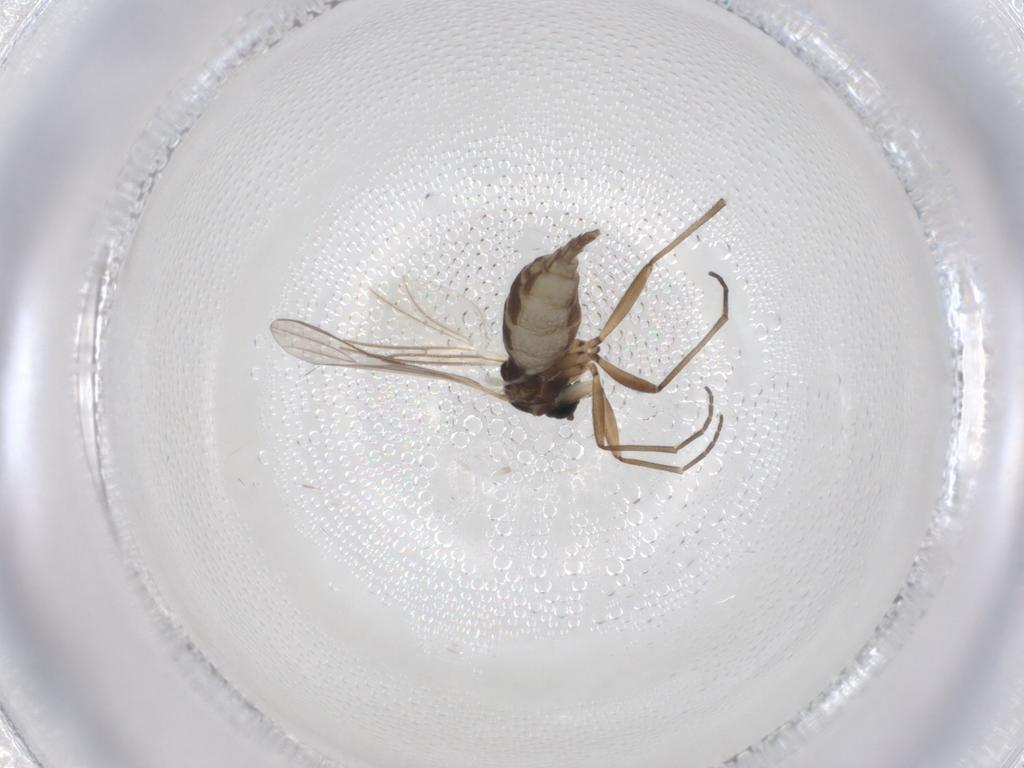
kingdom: Animalia
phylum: Arthropoda
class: Insecta
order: Diptera
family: Chironomidae
